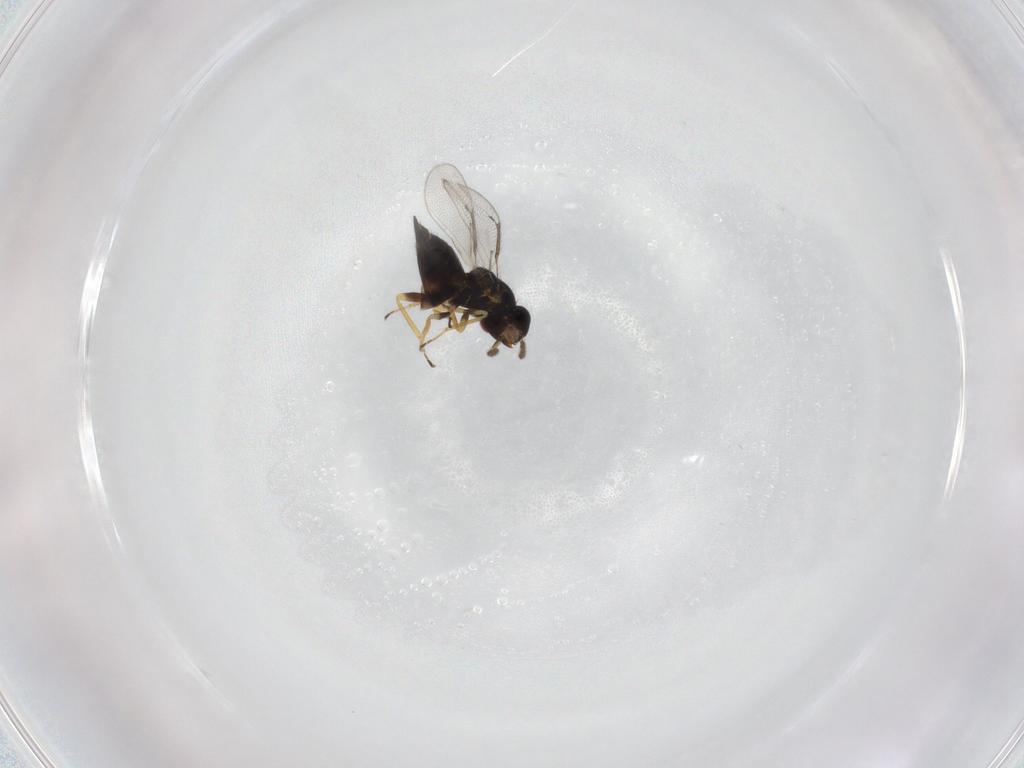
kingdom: Animalia
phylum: Arthropoda
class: Insecta
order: Hymenoptera
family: Eulophidae
